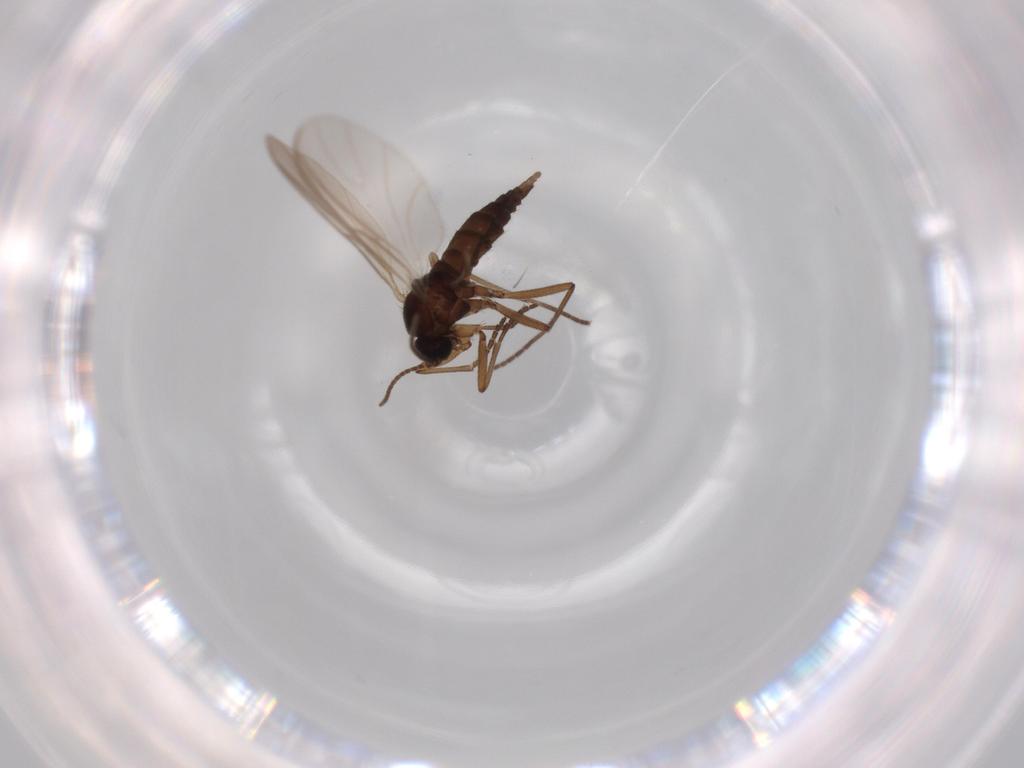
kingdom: Animalia
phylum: Arthropoda
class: Insecta
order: Diptera
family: Sciaridae
